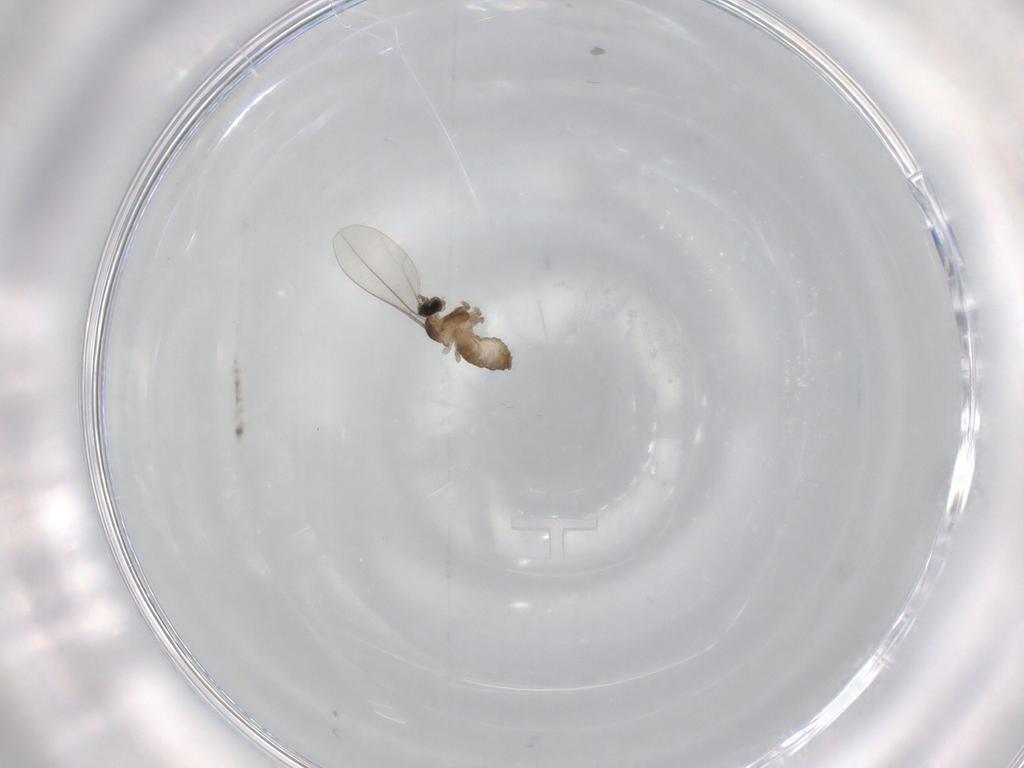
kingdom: Animalia
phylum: Arthropoda
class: Insecta
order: Diptera
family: Cecidomyiidae
